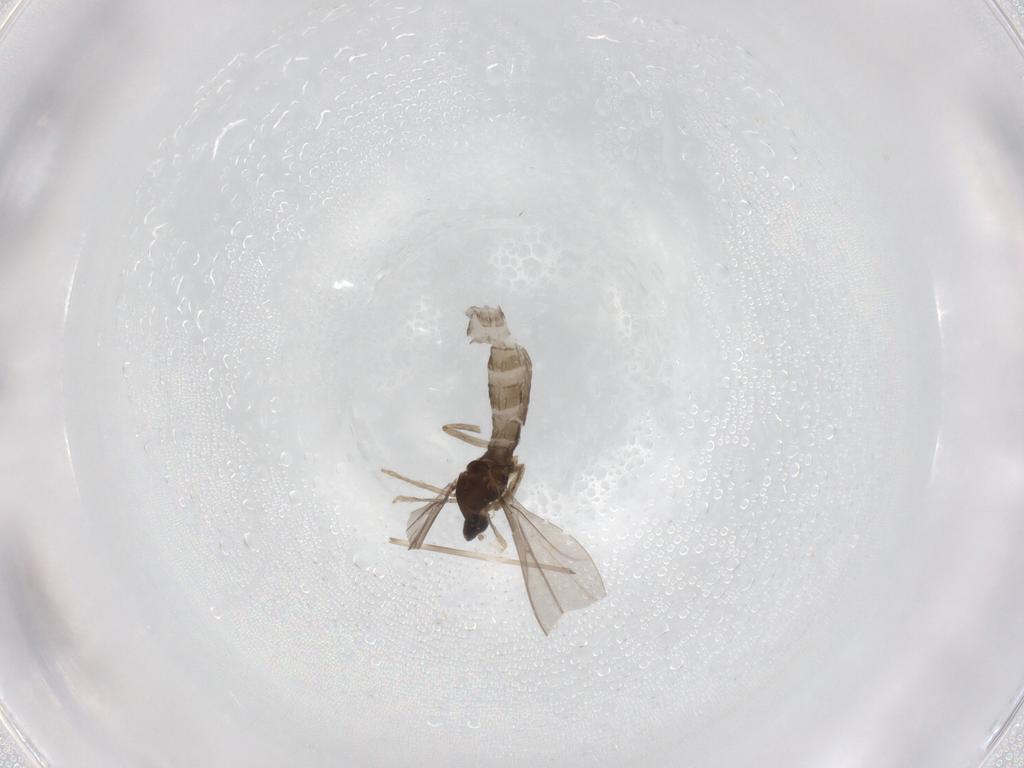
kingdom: Animalia
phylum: Arthropoda
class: Insecta
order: Diptera
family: Cecidomyiidae
